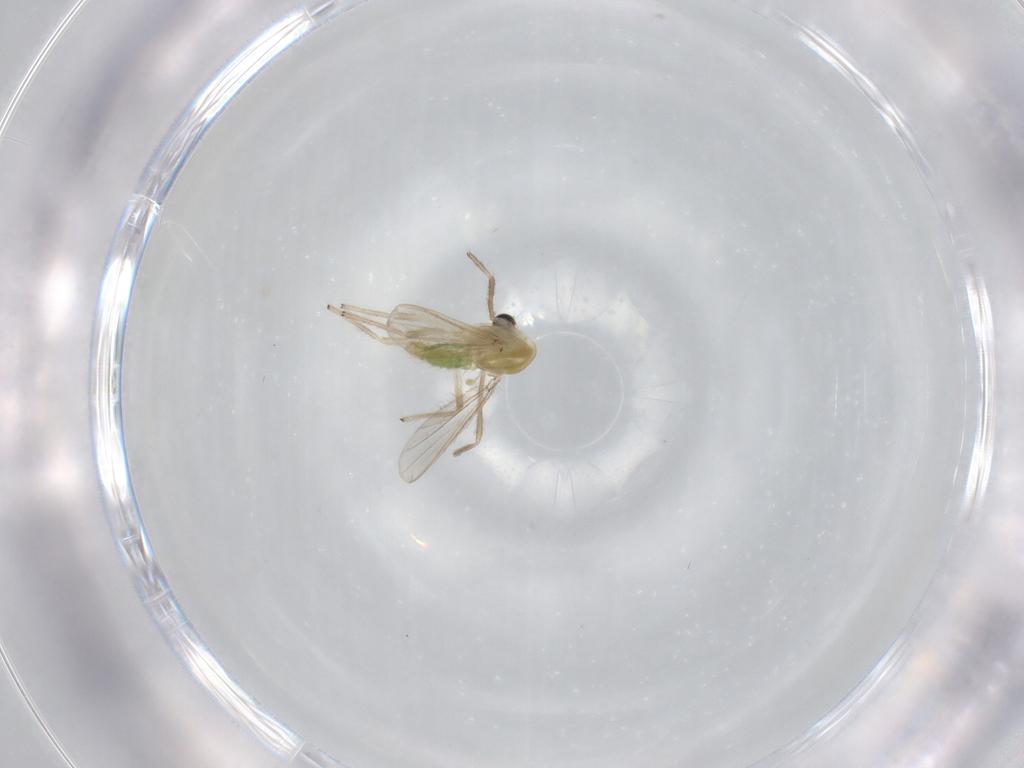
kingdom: Animalia
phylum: Arthropoda
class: Insecta
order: Diptera
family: Chironomidae
